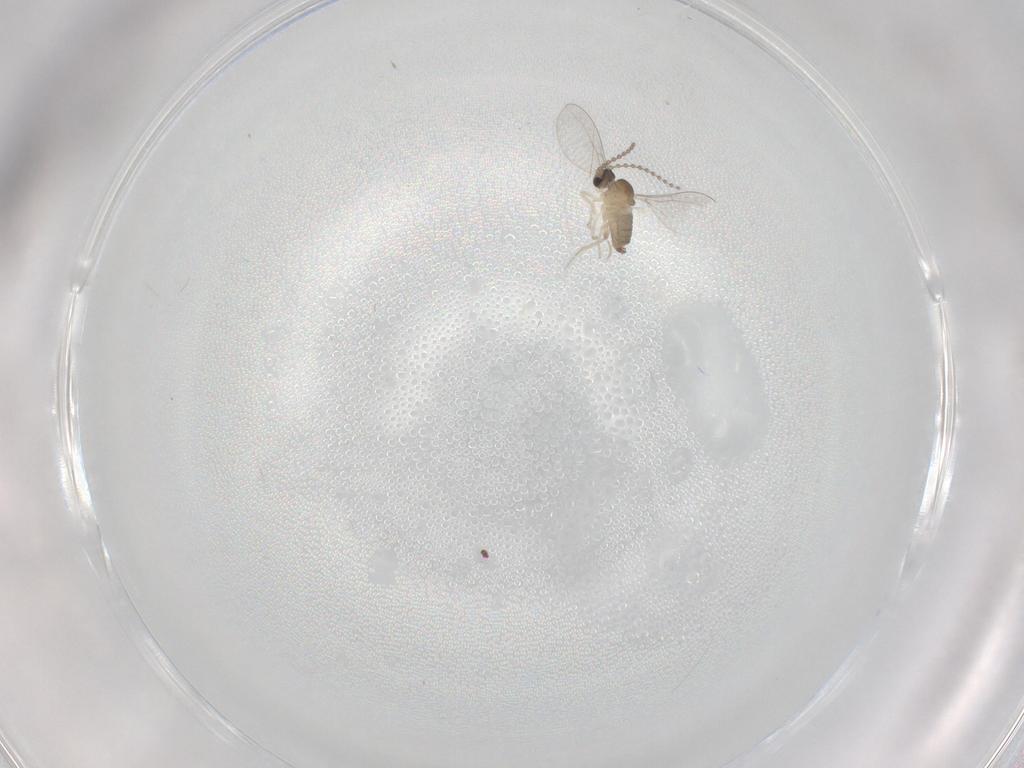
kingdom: Animalia
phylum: Arthropoda
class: Insecta
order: Diptera
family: Cecidomyiidae
